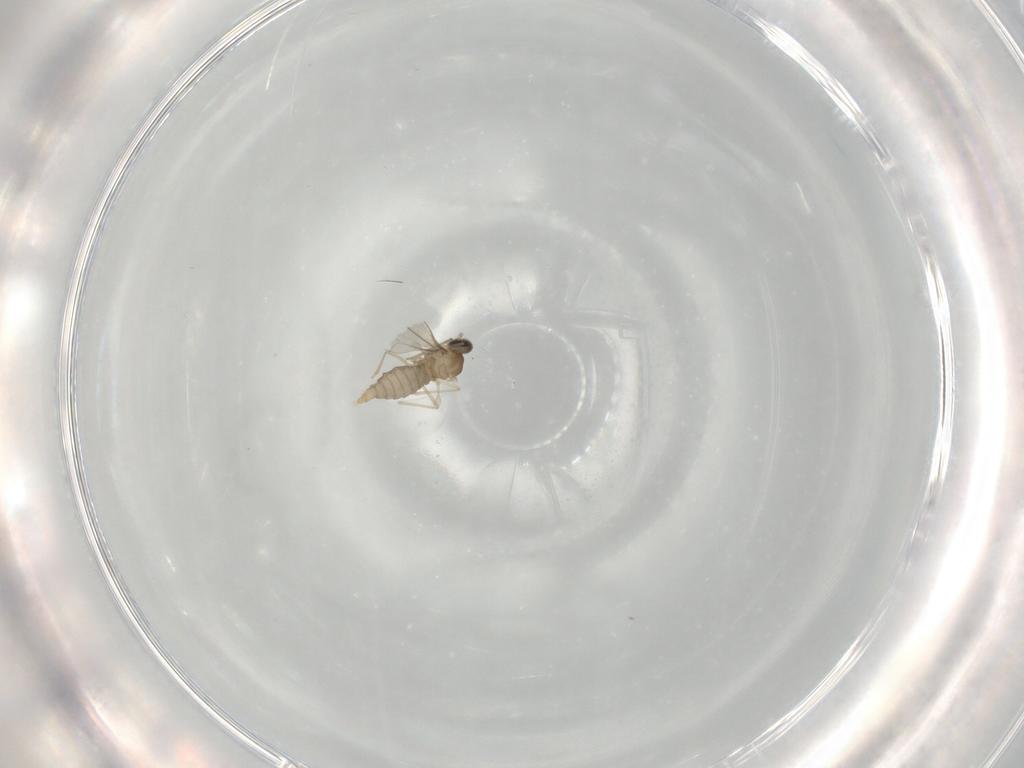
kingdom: Animalia
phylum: Arthropoda
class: Insecta
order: Diptera
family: Cecidomyiidae
